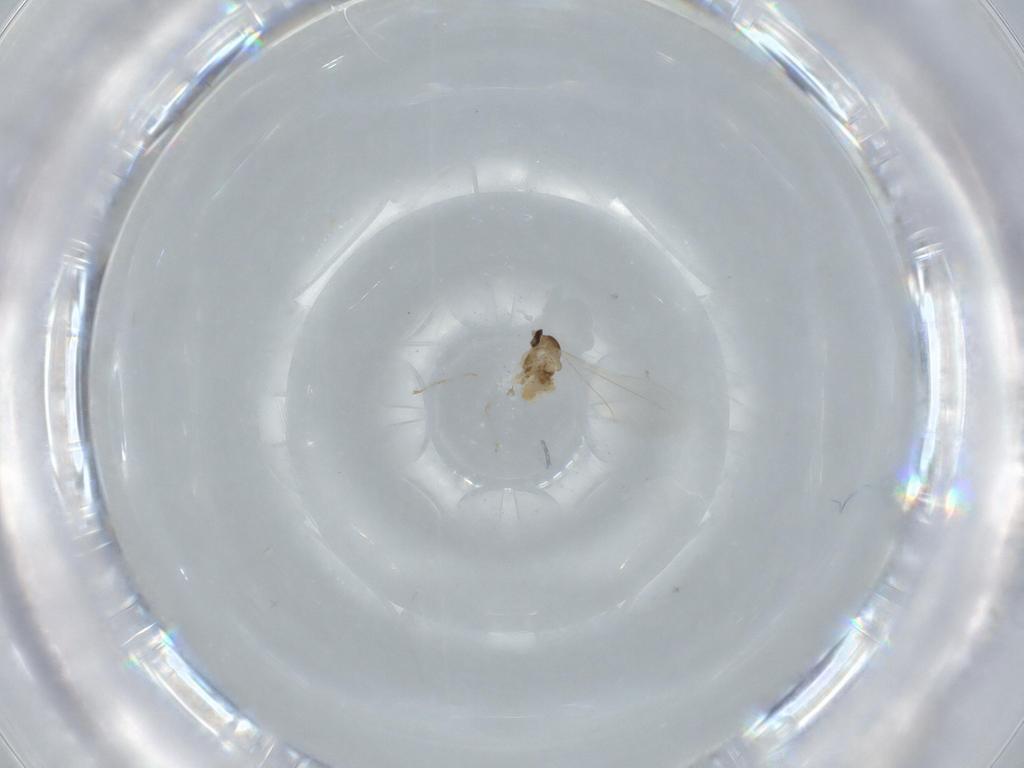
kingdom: Animalia
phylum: Arthropoda
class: Insecta
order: Diptera
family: Cecidomyiidae
